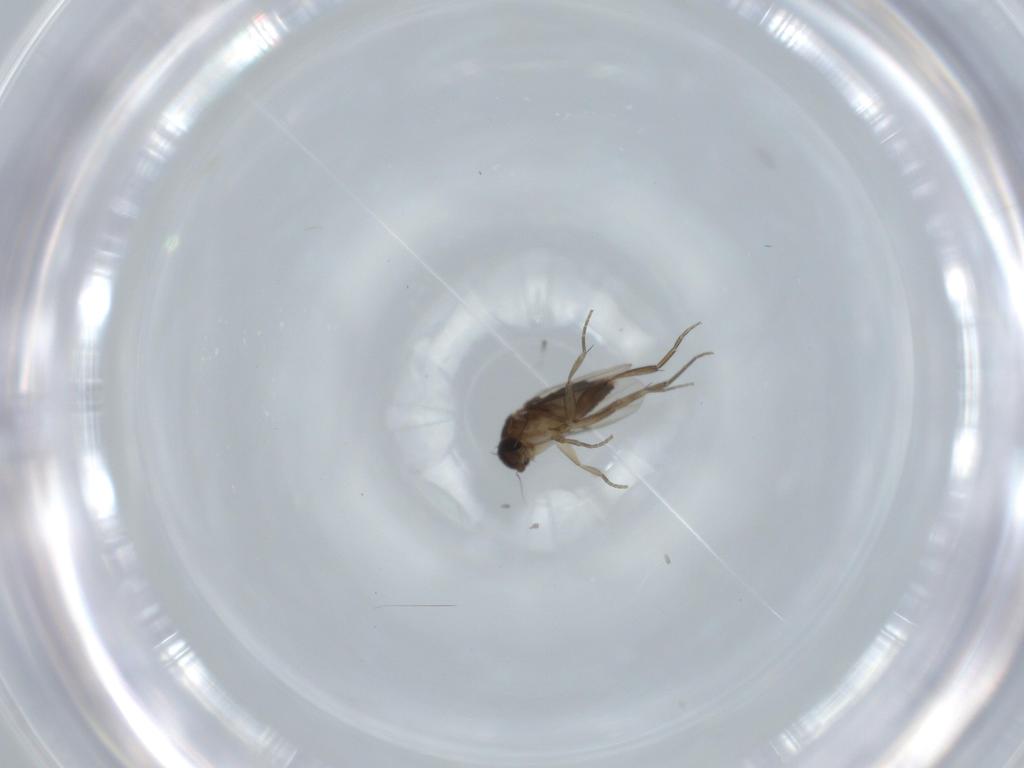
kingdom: Animalia
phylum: Arthropoda
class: Insecta
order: Diptera
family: Phoridae
